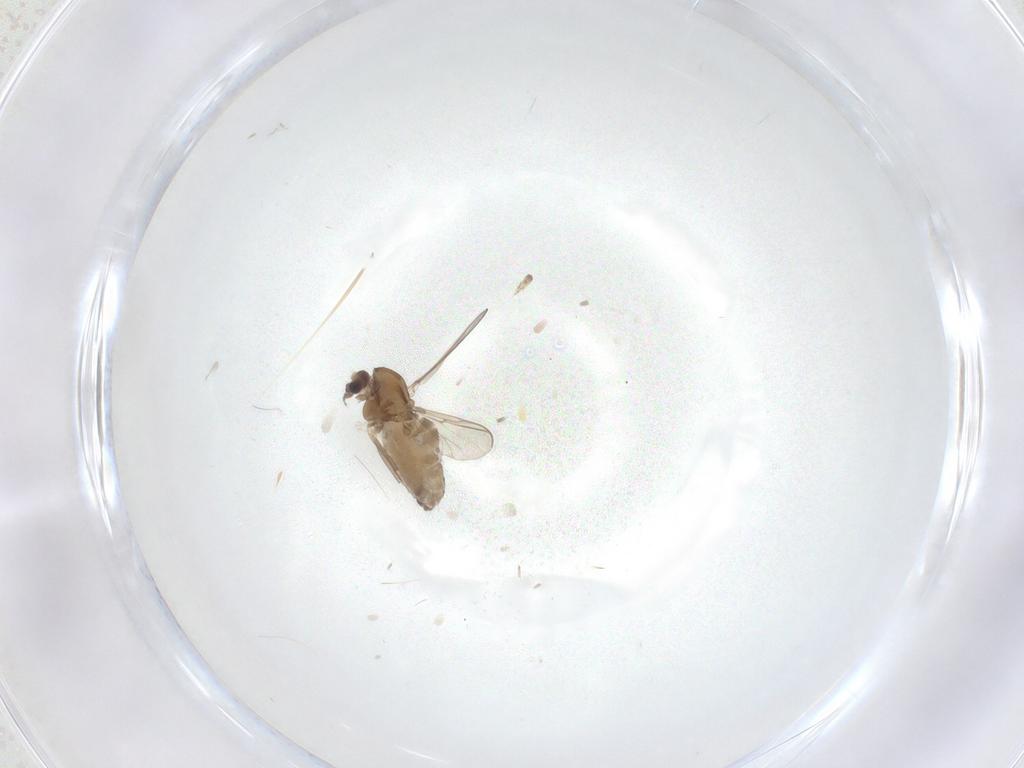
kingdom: Animalia
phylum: Arthropoda
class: Insecta
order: Diptera
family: Chironomidae
